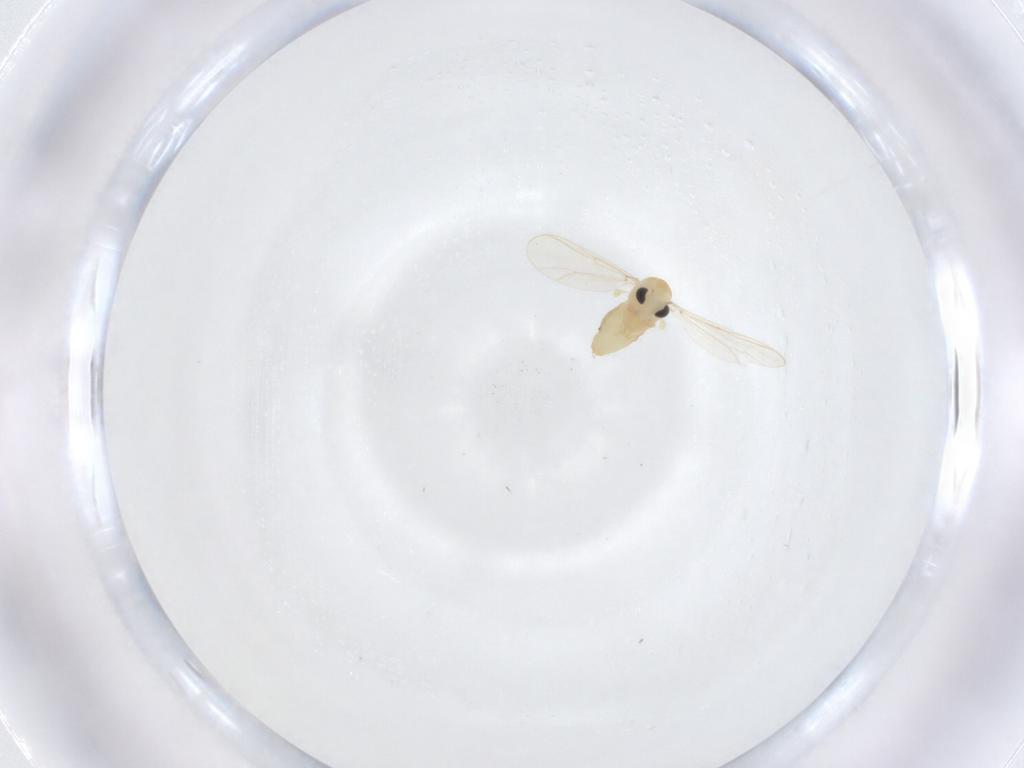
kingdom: Animalia
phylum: Arthropoda
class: Insecta
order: Diptera
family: Chironomidae
